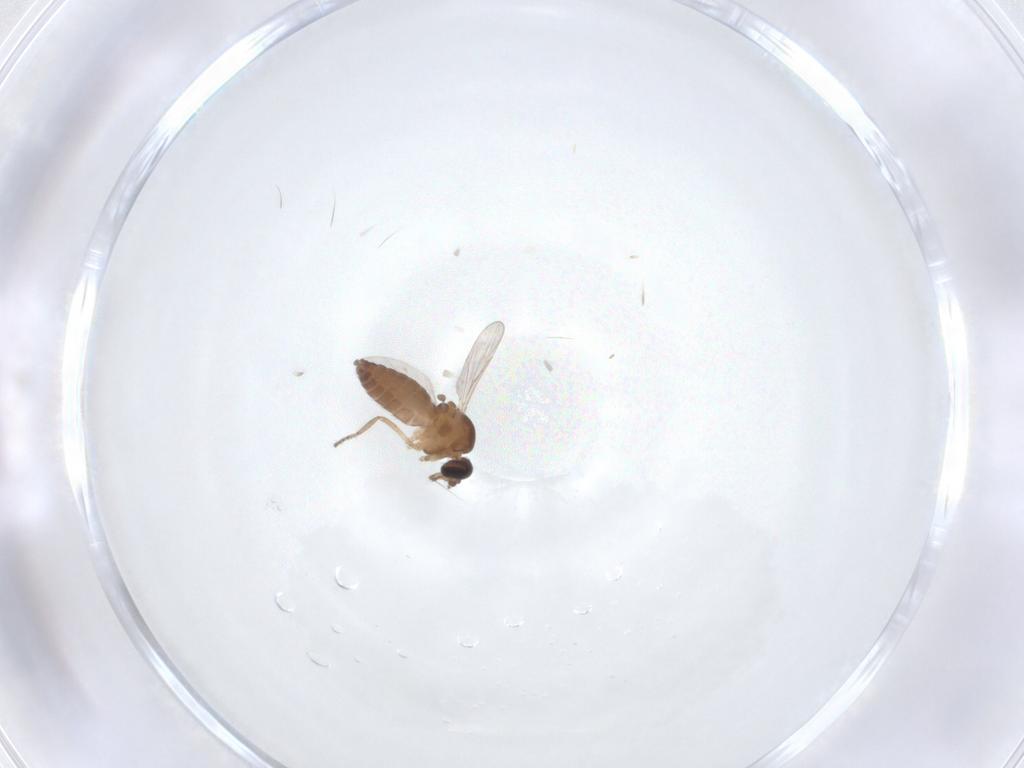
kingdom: Animalia
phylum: Arthropoda
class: Insecta
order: Diptera
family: Ceratopogonidae
